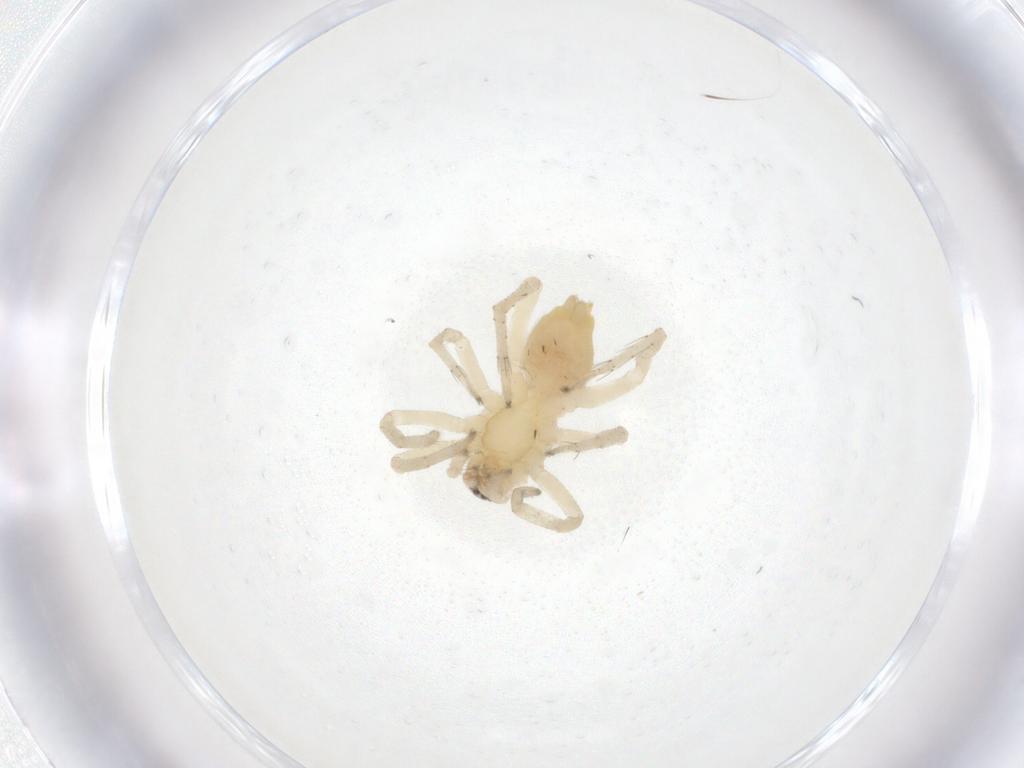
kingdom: Animalia
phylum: Arthropoda
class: Arachnida
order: Araneae
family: Clubionidae
